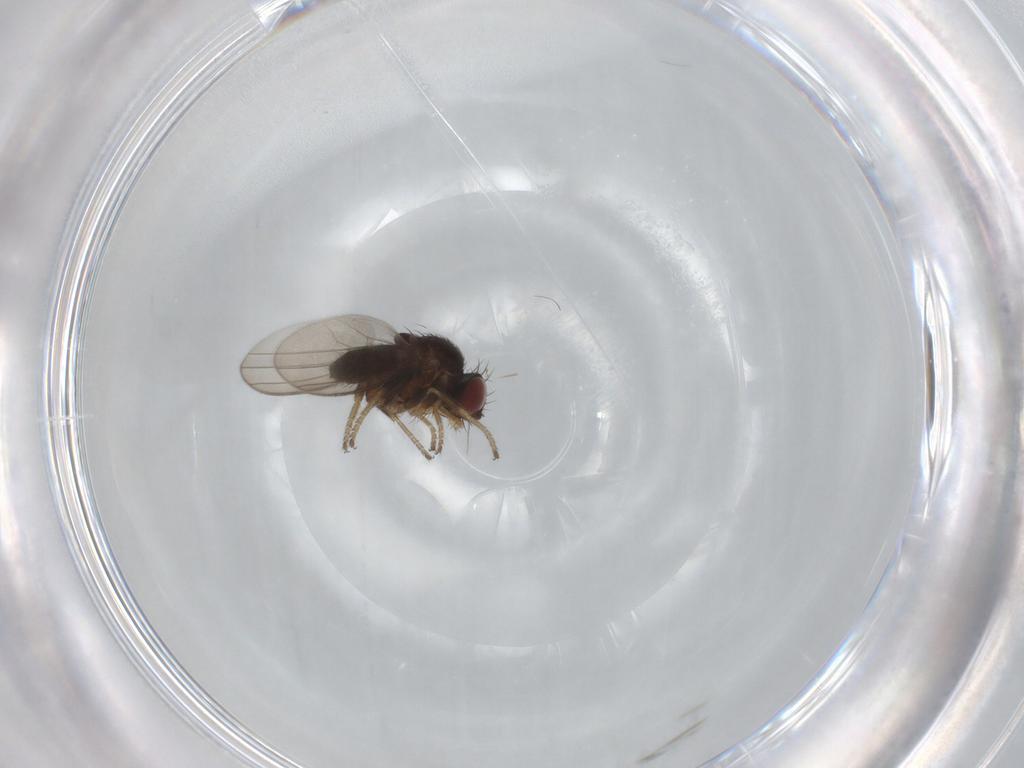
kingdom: Animalia
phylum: Arthropoda
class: Insecta
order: Diptera
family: Milichiidae
